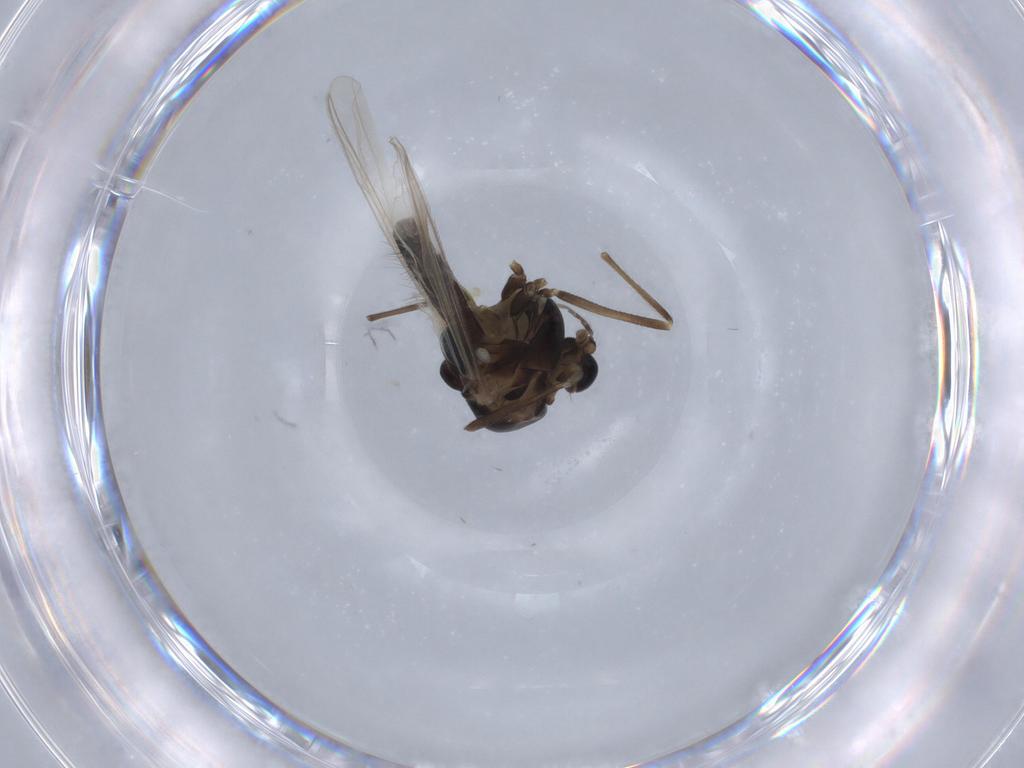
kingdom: Animalia
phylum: Arthropoda
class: Insecta
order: Diptera
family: Chironomidae
